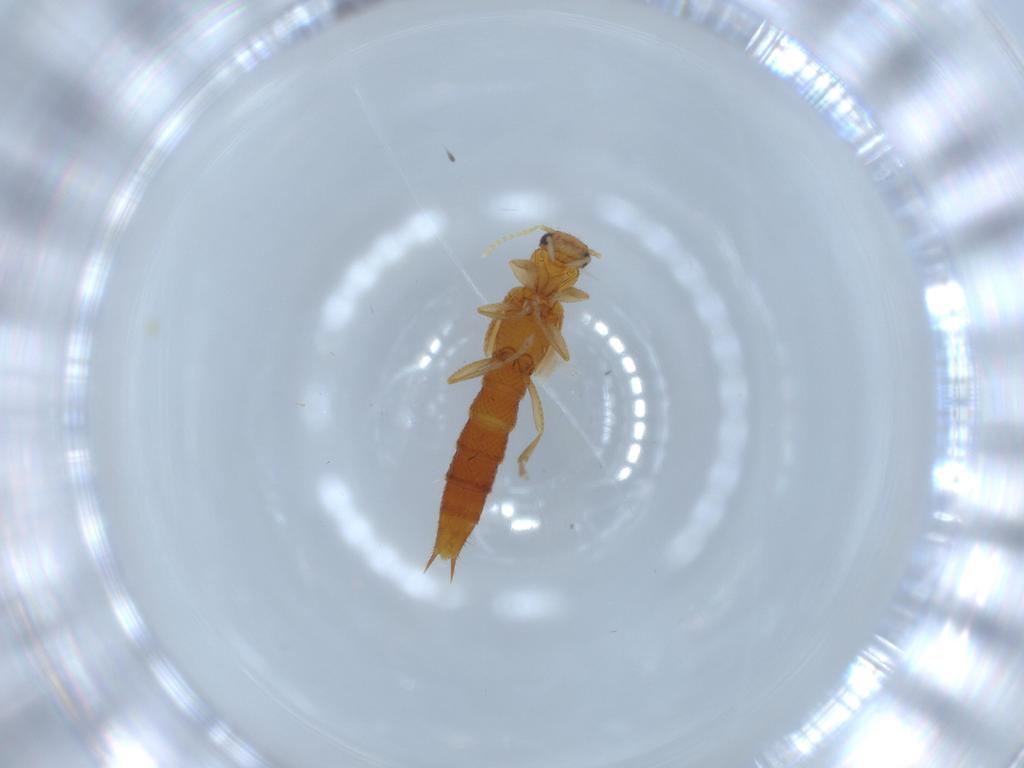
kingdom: Animalia
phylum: Arthropoda
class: Insecta
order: Coleoptera
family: Staphylinidae
